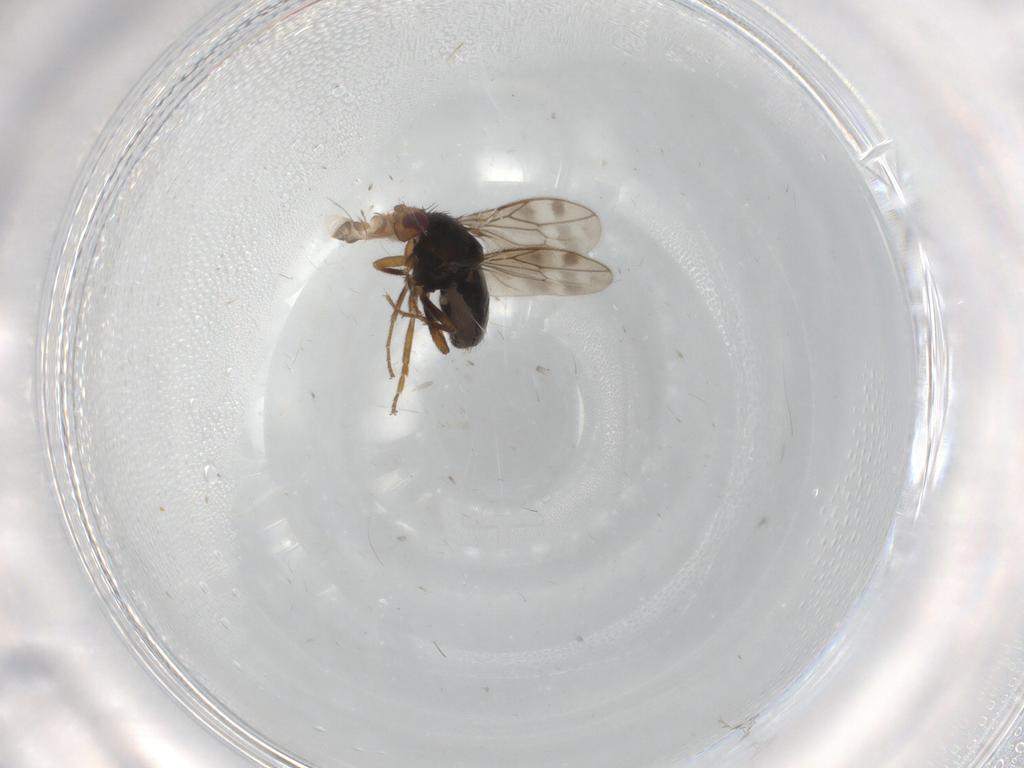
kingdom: Animalia
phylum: Arthropoda
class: Insecta
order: Diptera
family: Sphaeroceridae
